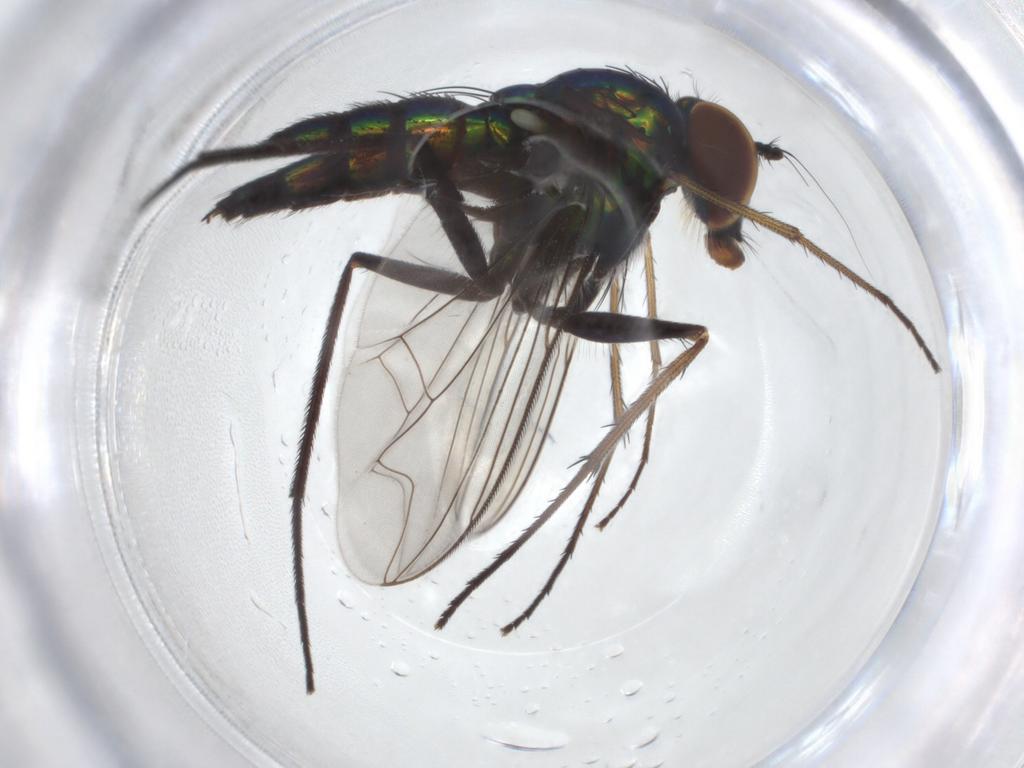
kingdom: Animalia
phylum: Arthropoda
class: Insecta
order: Diptera
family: Dolichopodidae
